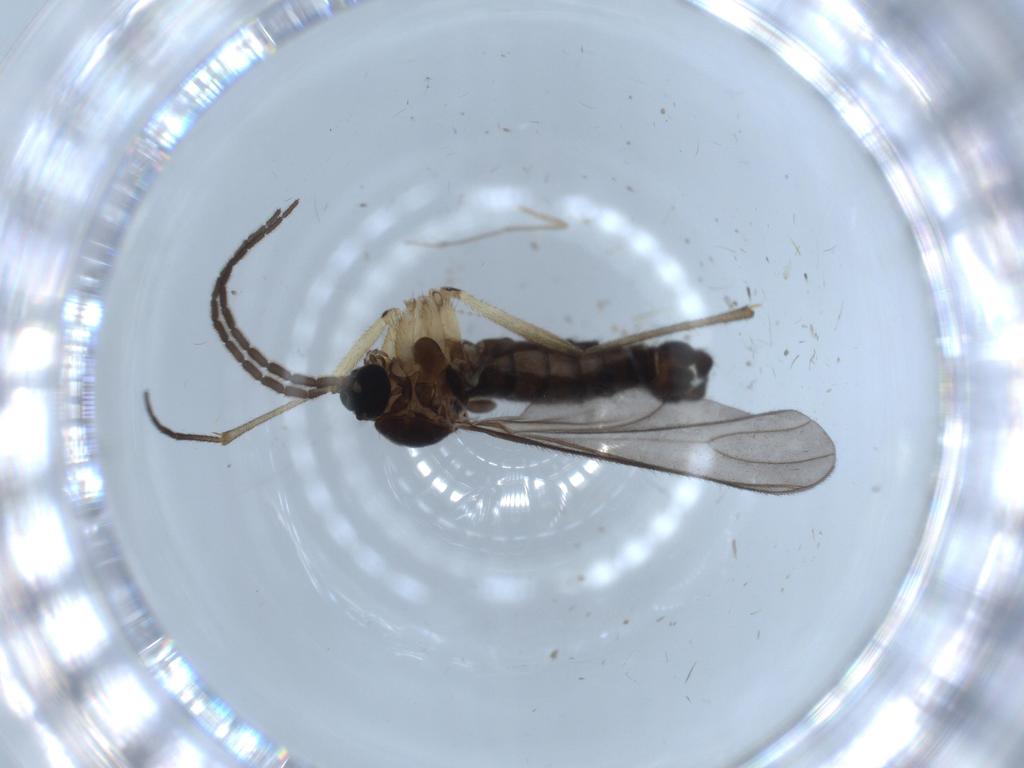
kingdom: Animalia
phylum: Arthropoda
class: Insecta
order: Diptera
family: Sciaridae
